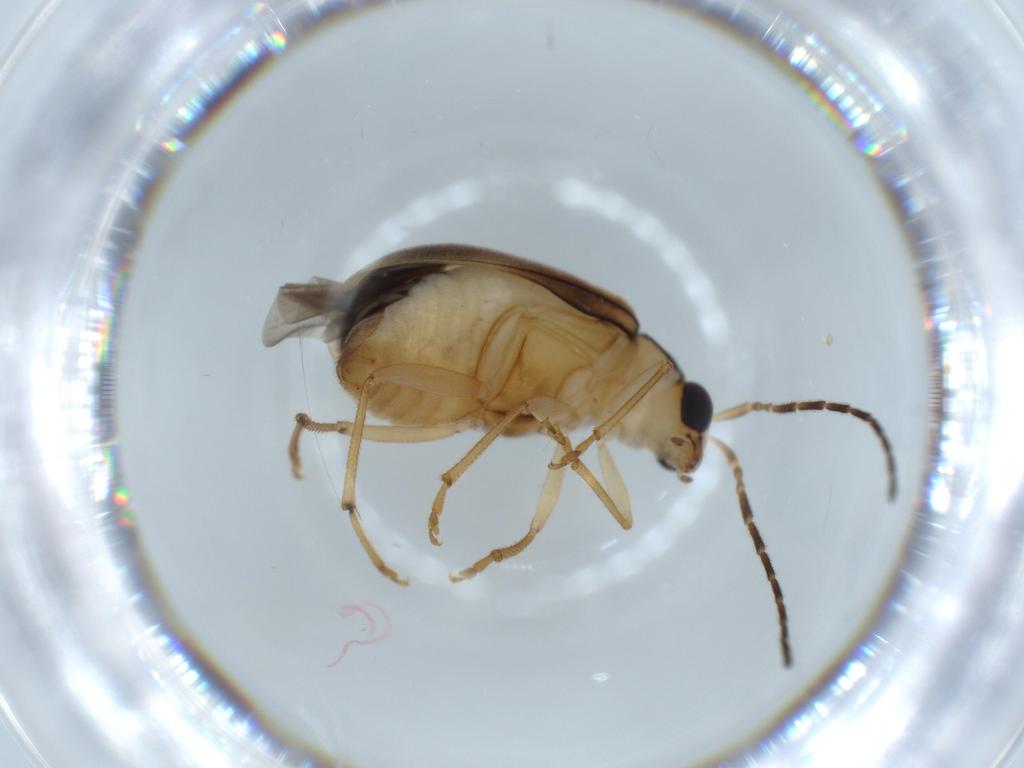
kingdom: Animalia
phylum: Arthropoda
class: Insecta
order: Coleoptera
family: Chrysomelidae
